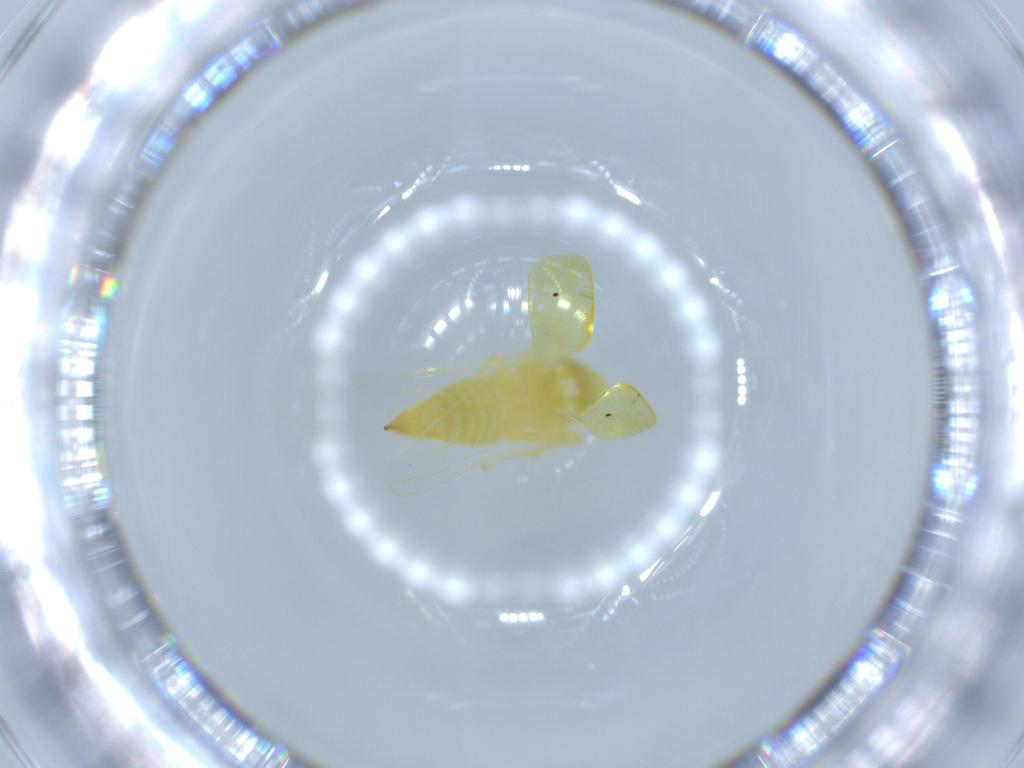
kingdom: Animalia
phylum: Arthropoda
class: Insecta
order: Hemiptera
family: Cicadellidae
